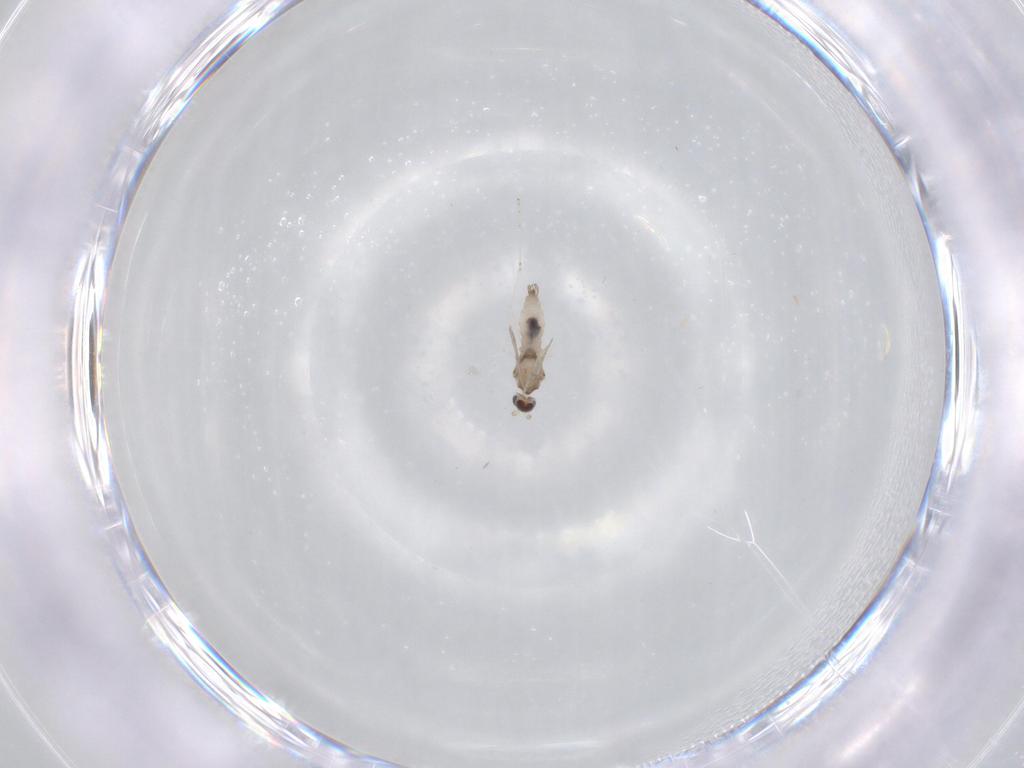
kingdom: Animalia
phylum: Arthropoda
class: Insecta
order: Diptera
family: Cecidomyiidae
